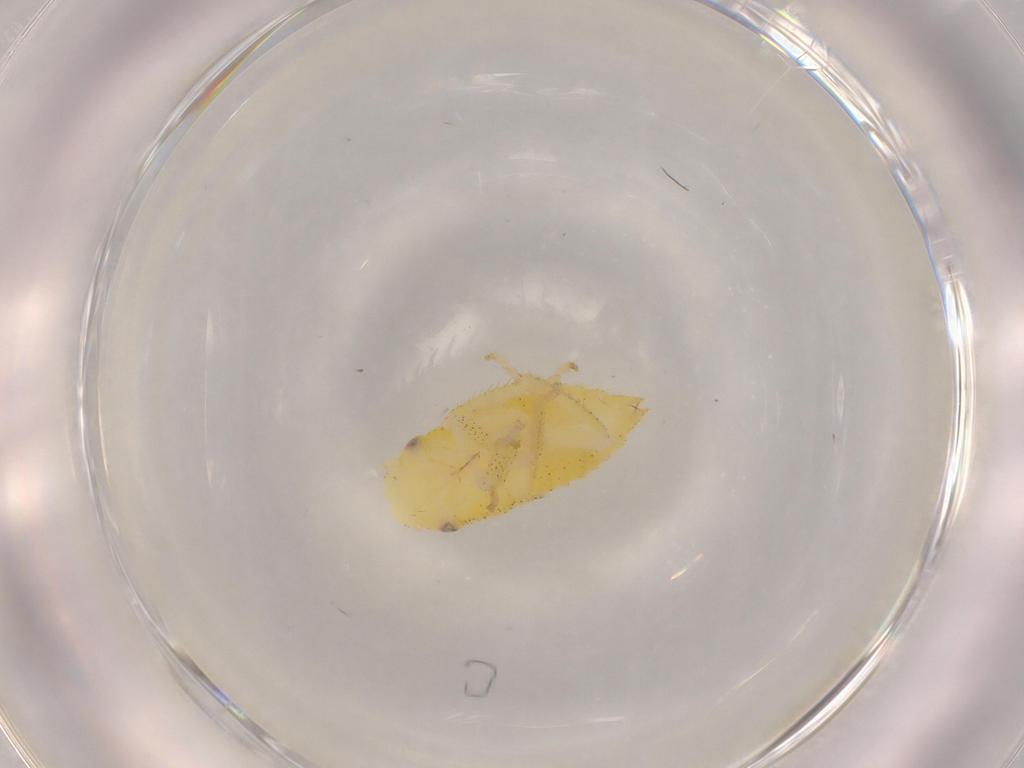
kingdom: Animalia
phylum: Arthropoda
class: Insecta
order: Hemiptera
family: Cicadellidae
